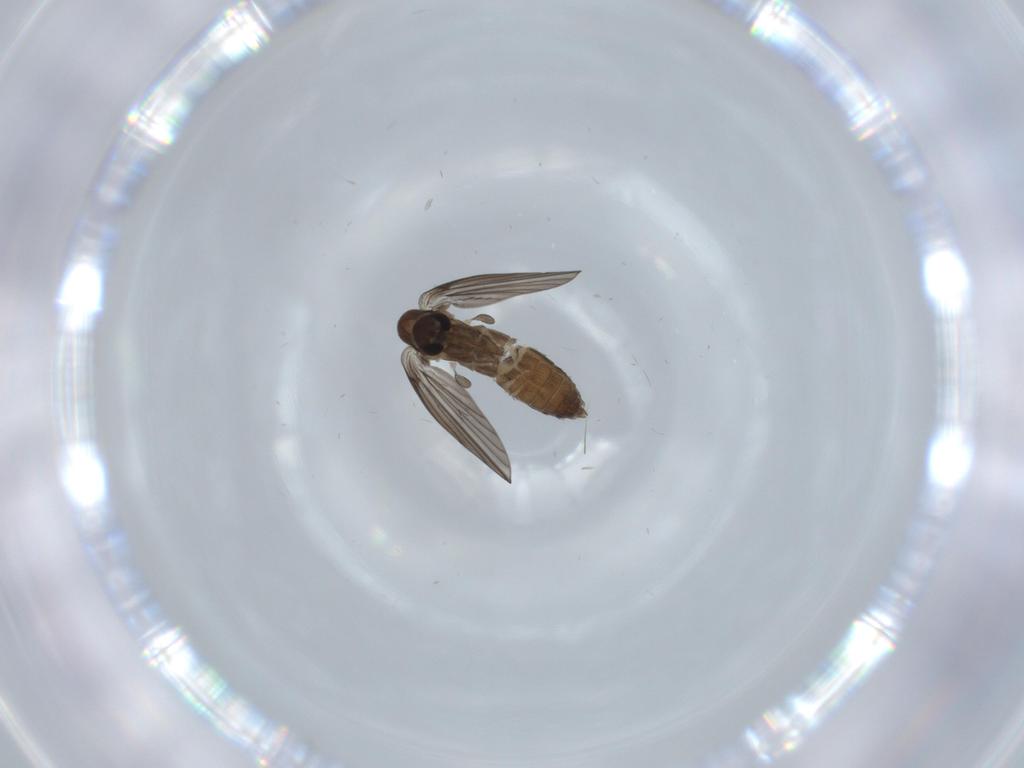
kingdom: Animalia
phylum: Arthropoda
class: Insecta
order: Diptera
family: Psychodidae
